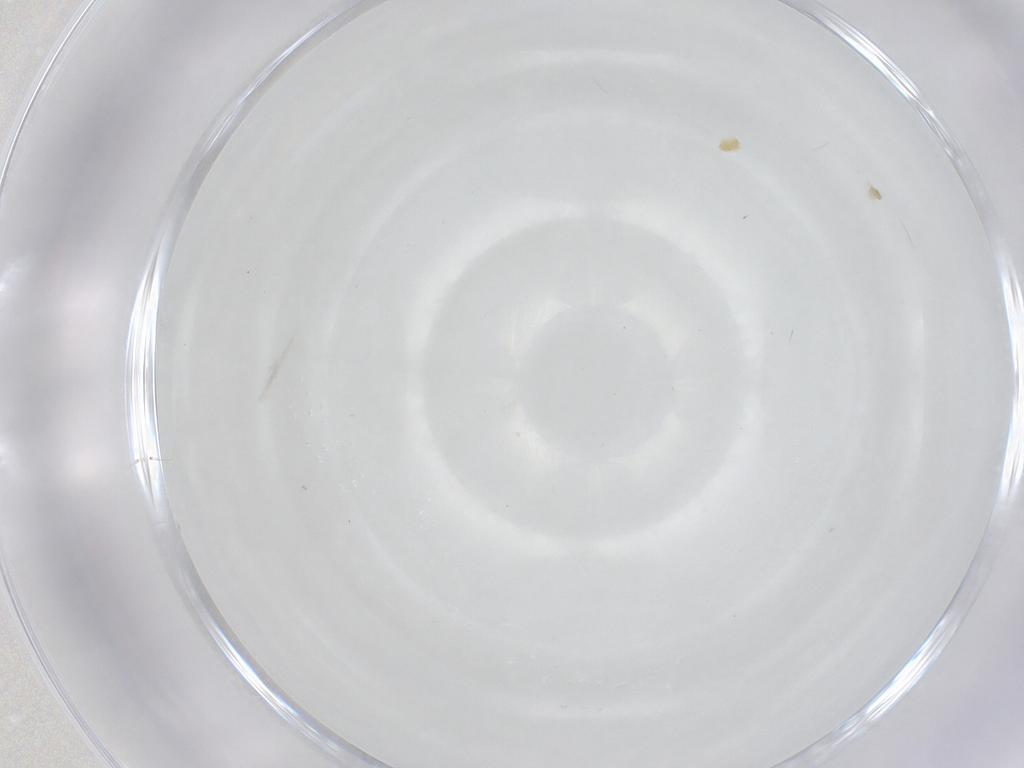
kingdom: Animalia
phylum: Arthropoda
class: Insecta
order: Diptera
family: Sciaridae
